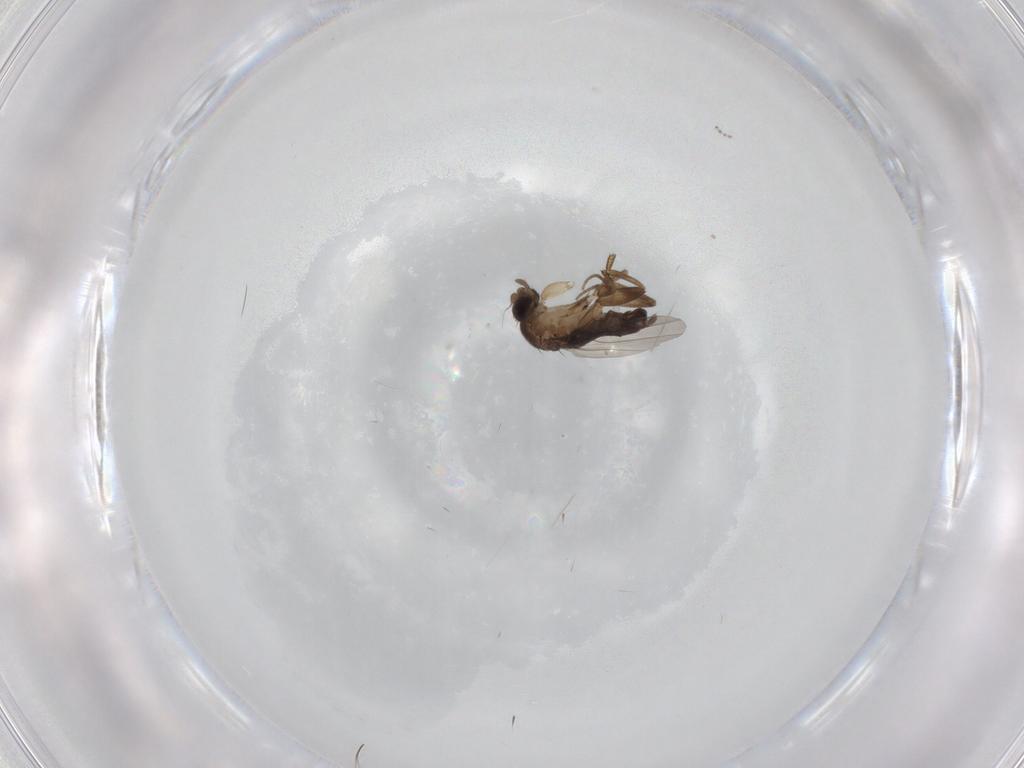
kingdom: Animalia
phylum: Arthropoda
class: Insecta
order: Diptera
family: Cecidomyiidae
